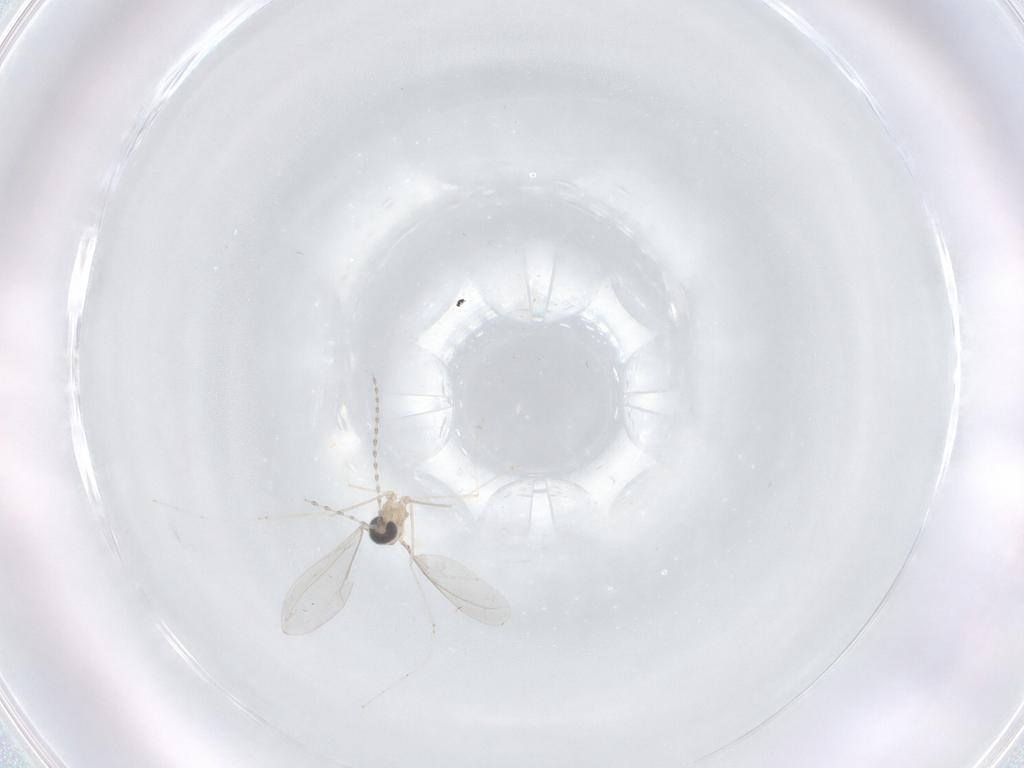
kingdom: Animalia
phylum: Arthropoda
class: Insecta
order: Diptera
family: Cecidomyiidae
